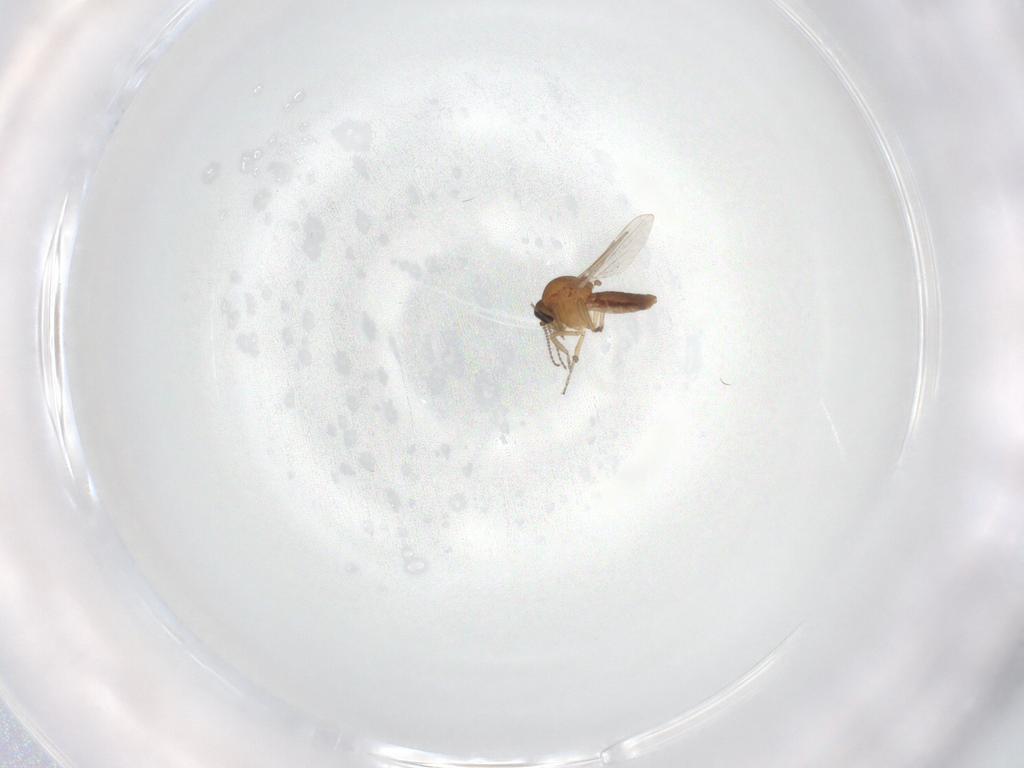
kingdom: Animalia
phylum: Arthropoda
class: Insecta
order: Diptera
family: Ceratopogonidae
